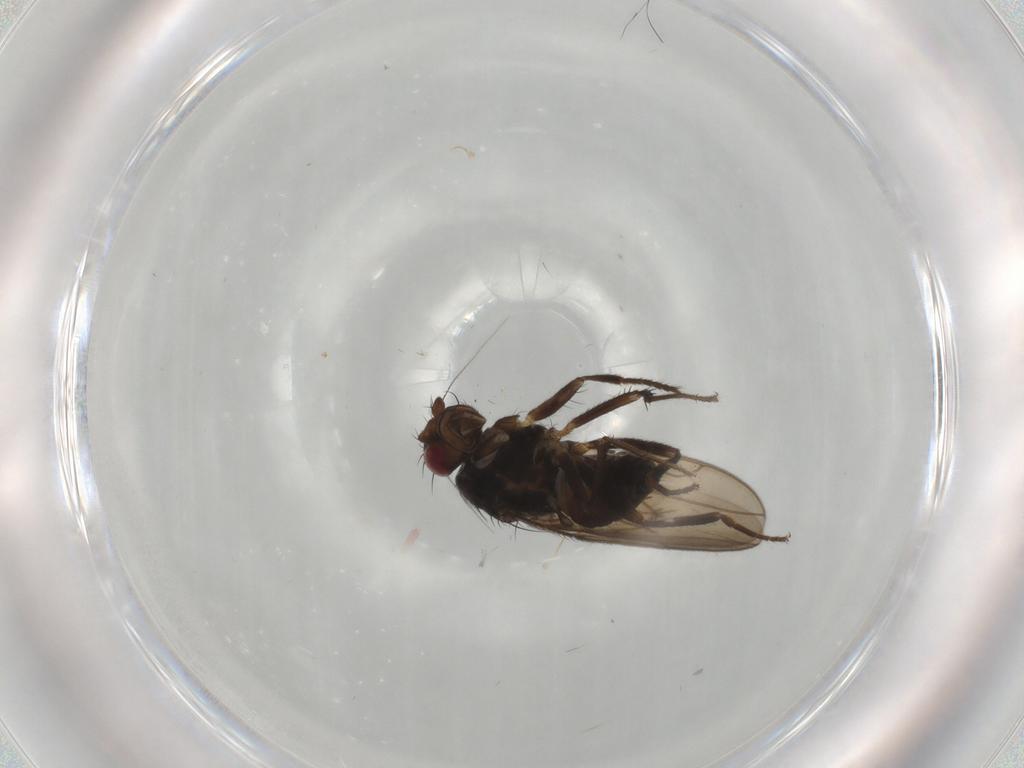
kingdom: Animalia
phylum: Arthropoda
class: Insecta
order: Diptera
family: Sphaeroceridae
